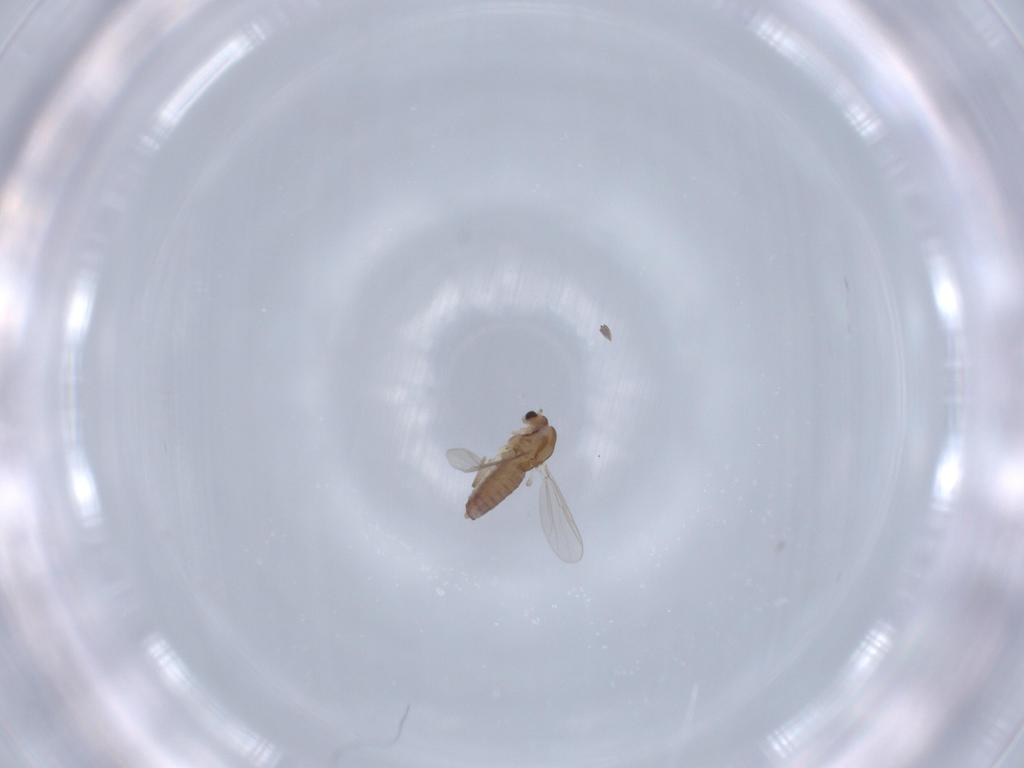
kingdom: Animalia
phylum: Arthropoda
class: Insecta
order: Diptera
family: Chironomidae
